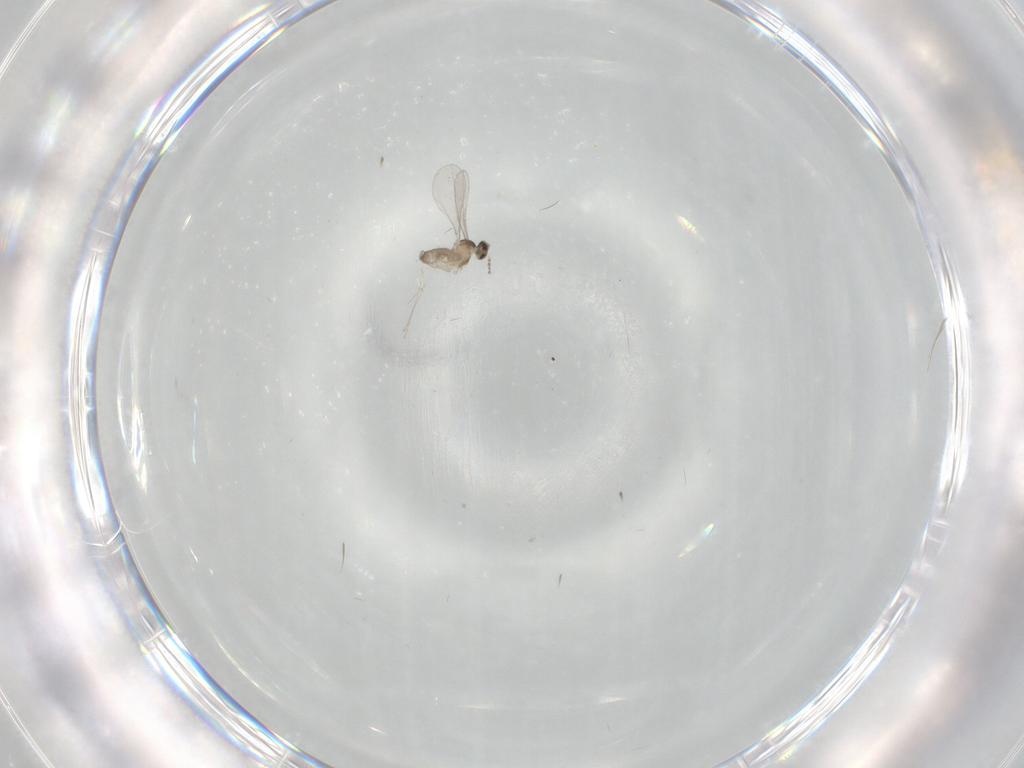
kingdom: Animalia
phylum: Arthropoda
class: Insecta
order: Diptera
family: Cecidomyiidae
